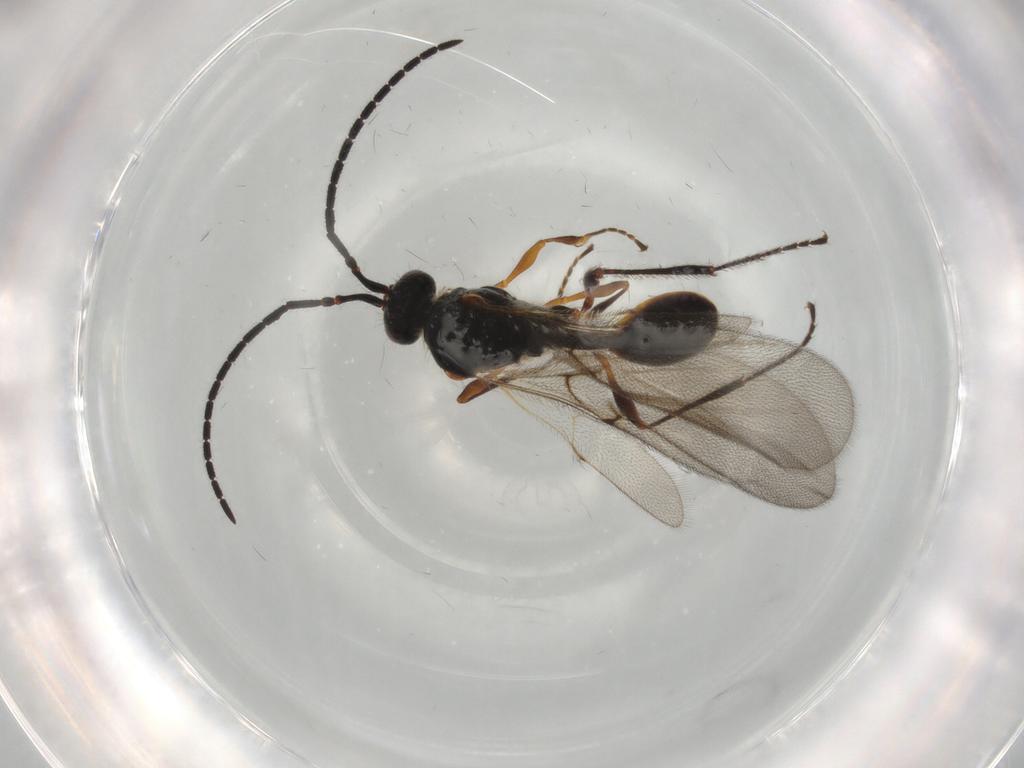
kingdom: Animalia
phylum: Arthropoda
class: Insecta
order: Hymenoptera
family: Diapriidae
